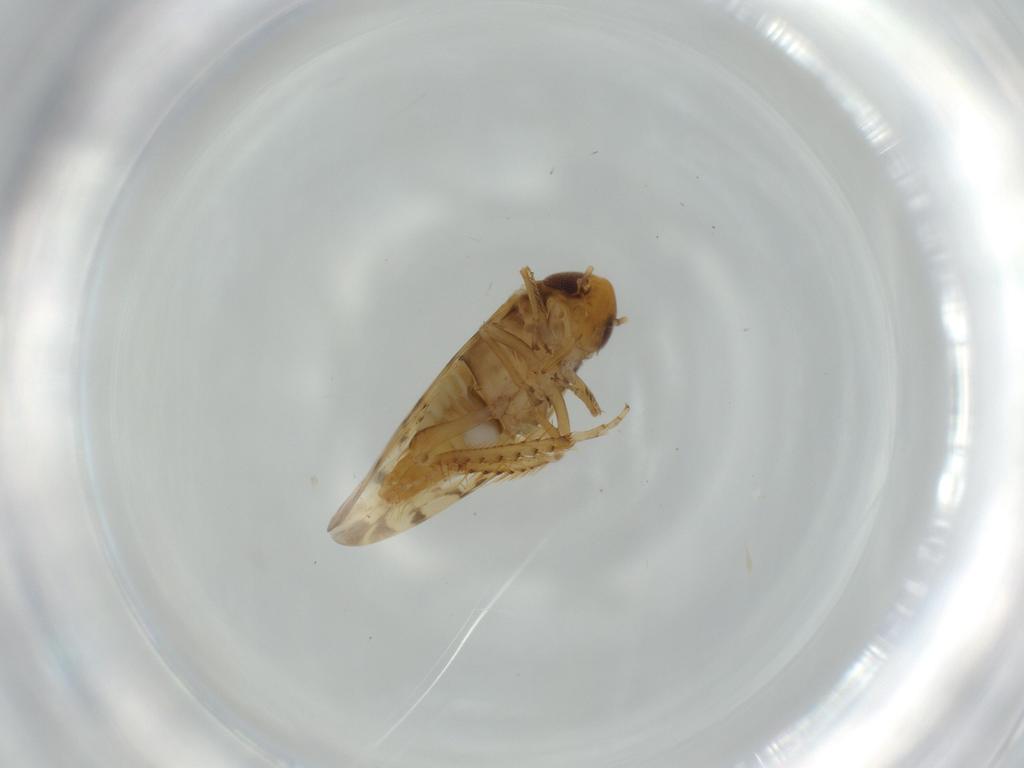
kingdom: Animalia
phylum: Arthropoda
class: Insecta
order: Hemiptera
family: Cicadellidae
